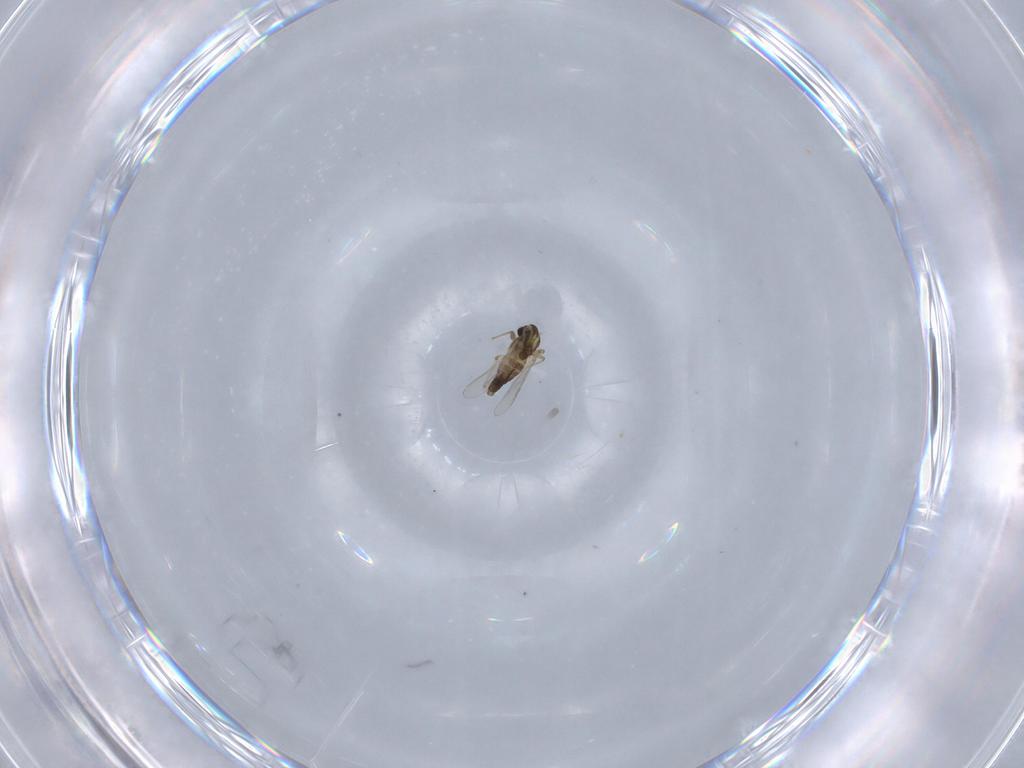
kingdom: Animalia
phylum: Arthropoda
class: Insecta
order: Diptera
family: Chironomidae
